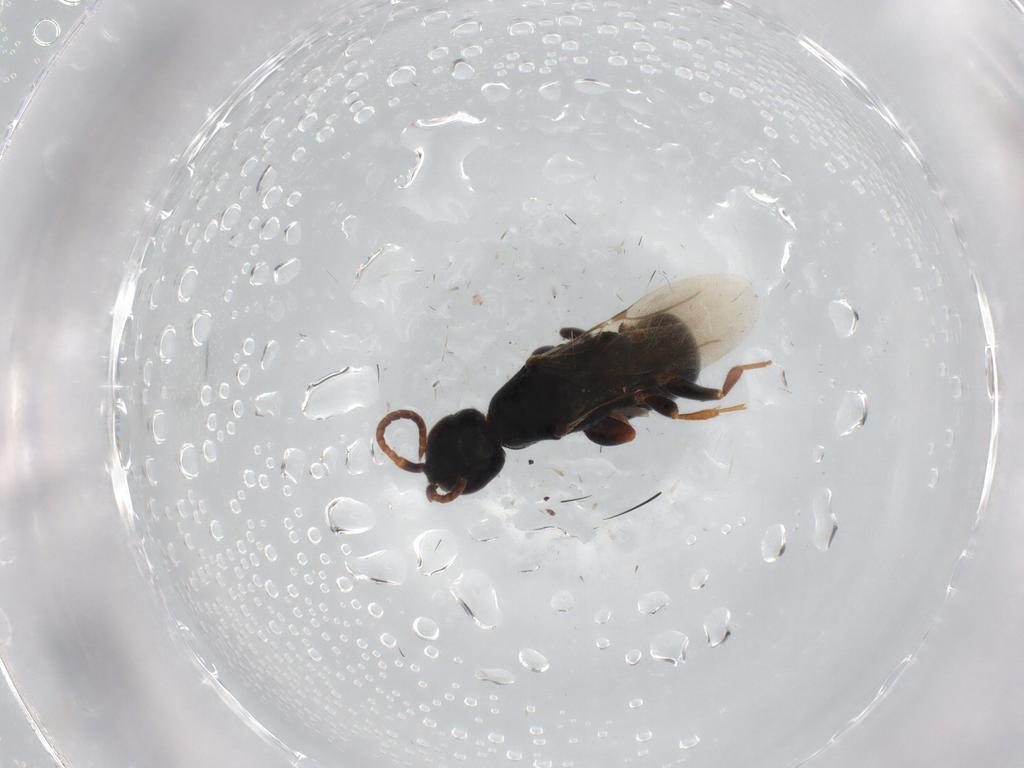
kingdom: Animalia
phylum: Arthropoda
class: Insecta
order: Hymenoptera
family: Bethylidae
